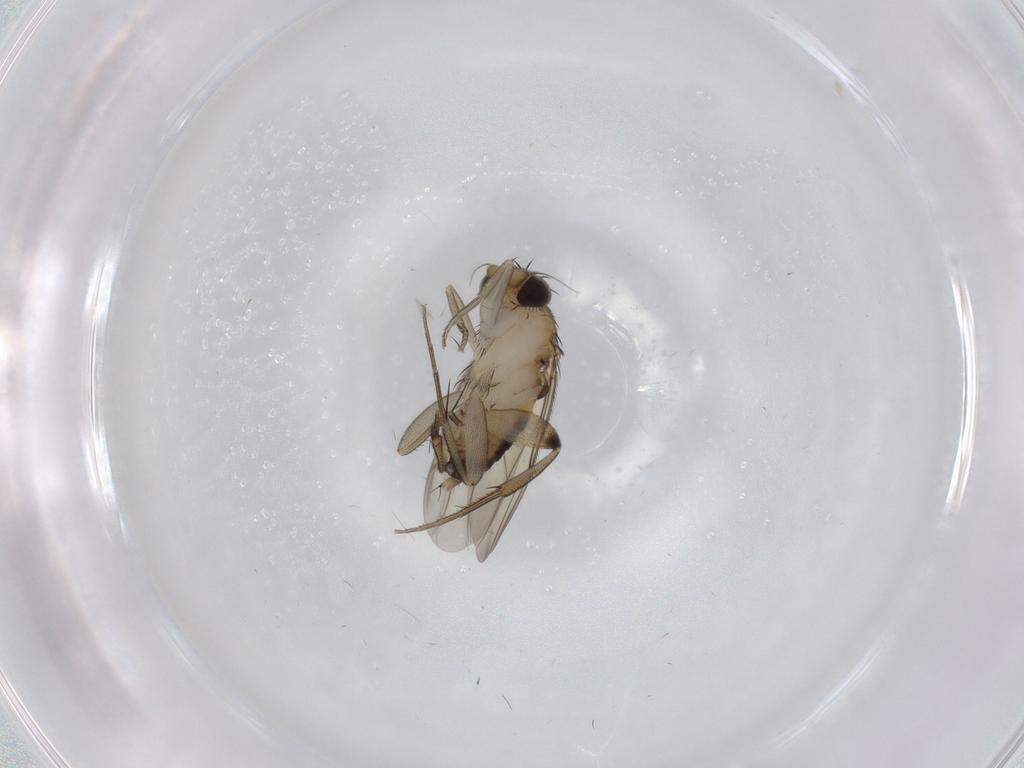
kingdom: Animalia
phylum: Arthropoda
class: Insecta
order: Diptera
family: Phoridae
